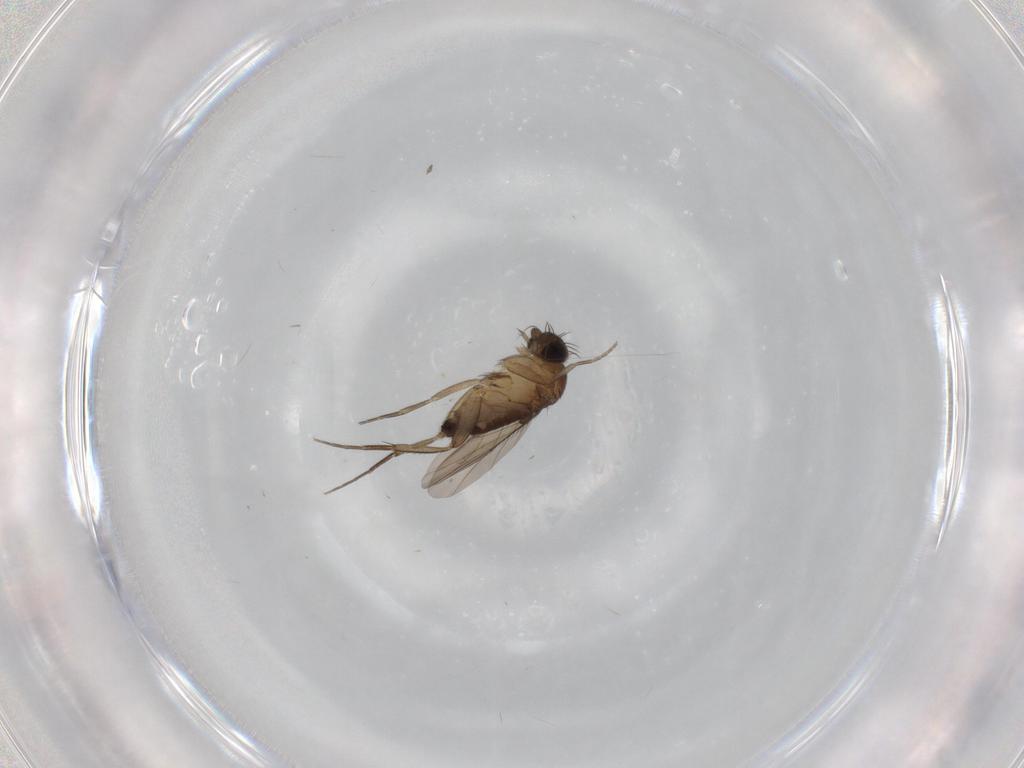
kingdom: Animalia
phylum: Arthropoda
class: Insecta
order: Diptera
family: Phoridae
